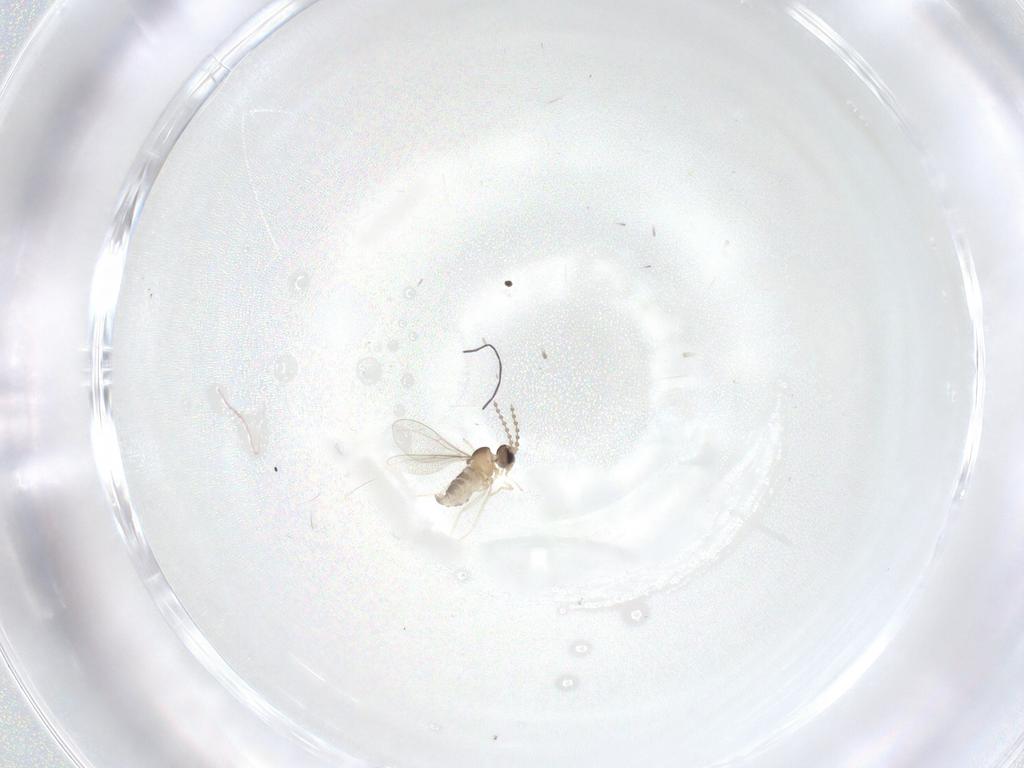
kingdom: Animalia
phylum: Arthropoda
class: Insecta
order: Diptera
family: Cecidomyiidae
